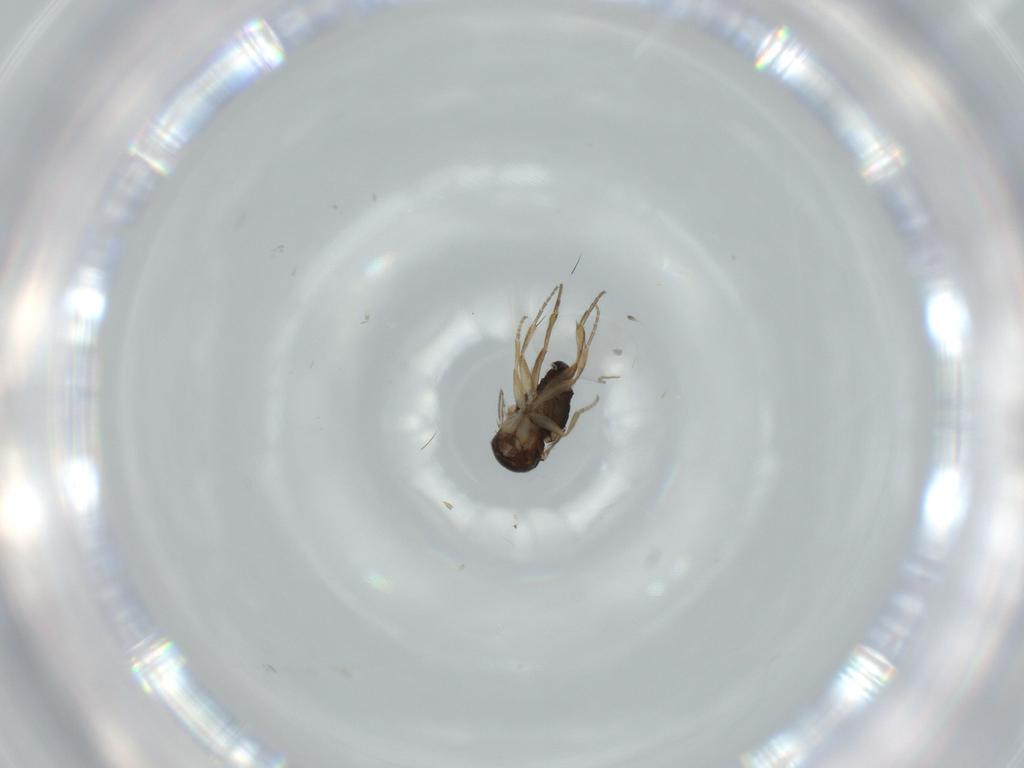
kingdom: Animalia
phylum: Arthropoda
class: Insecta
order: Diptera
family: Phoridae
